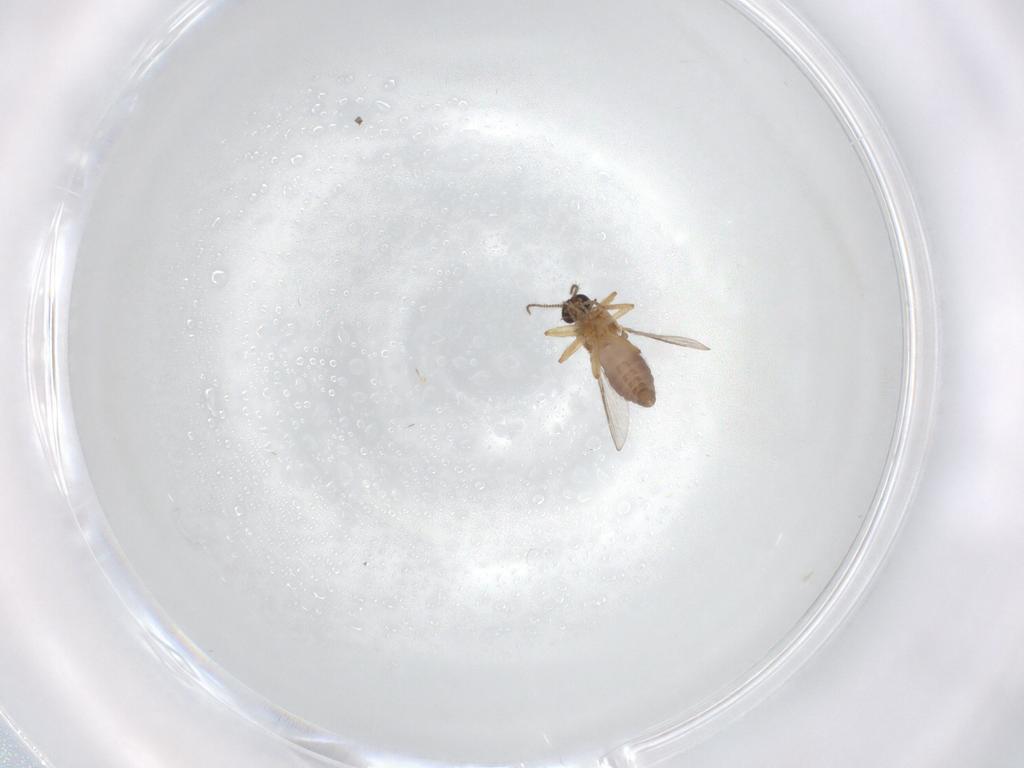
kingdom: Animalia
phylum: Arthropoda
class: Insecta
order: Diptera
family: Ceratopogonidae
